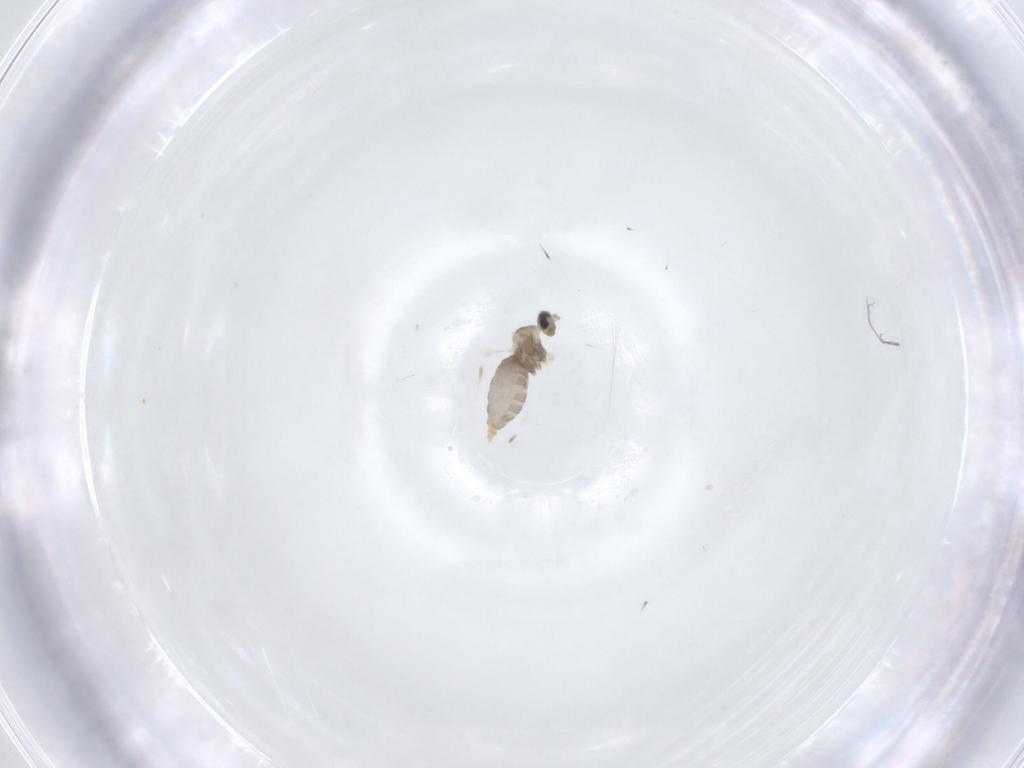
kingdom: Animalia
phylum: Arthropoda
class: Insecta
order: Diptera
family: Cecidomyiidae
